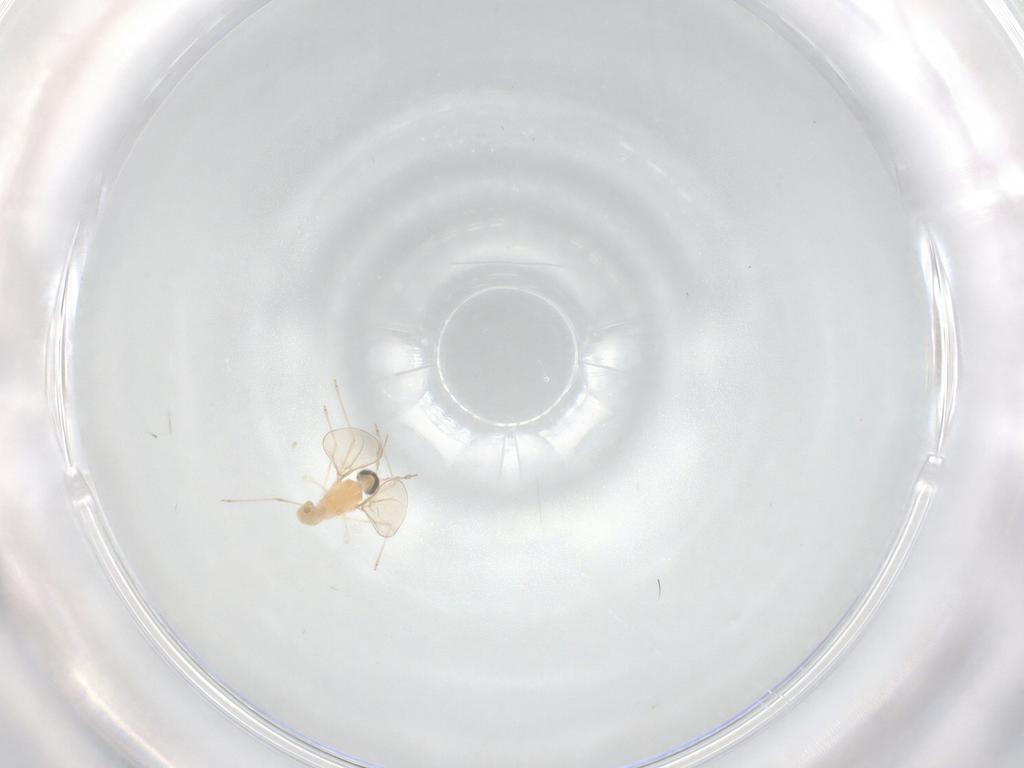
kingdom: Animalia
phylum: Arthropoda
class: Insecta
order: Diptera
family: Cecidomyiidae
